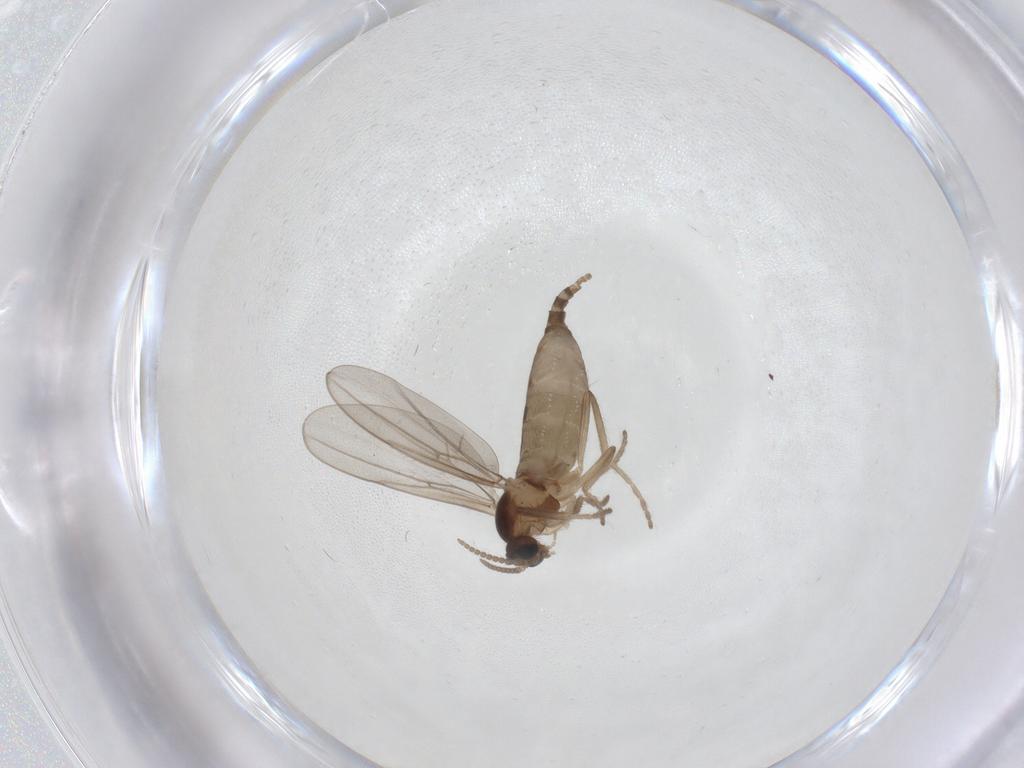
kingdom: Animalia
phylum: Arthropoda
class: Insecta
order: Diptera
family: Cecidomyiidae
